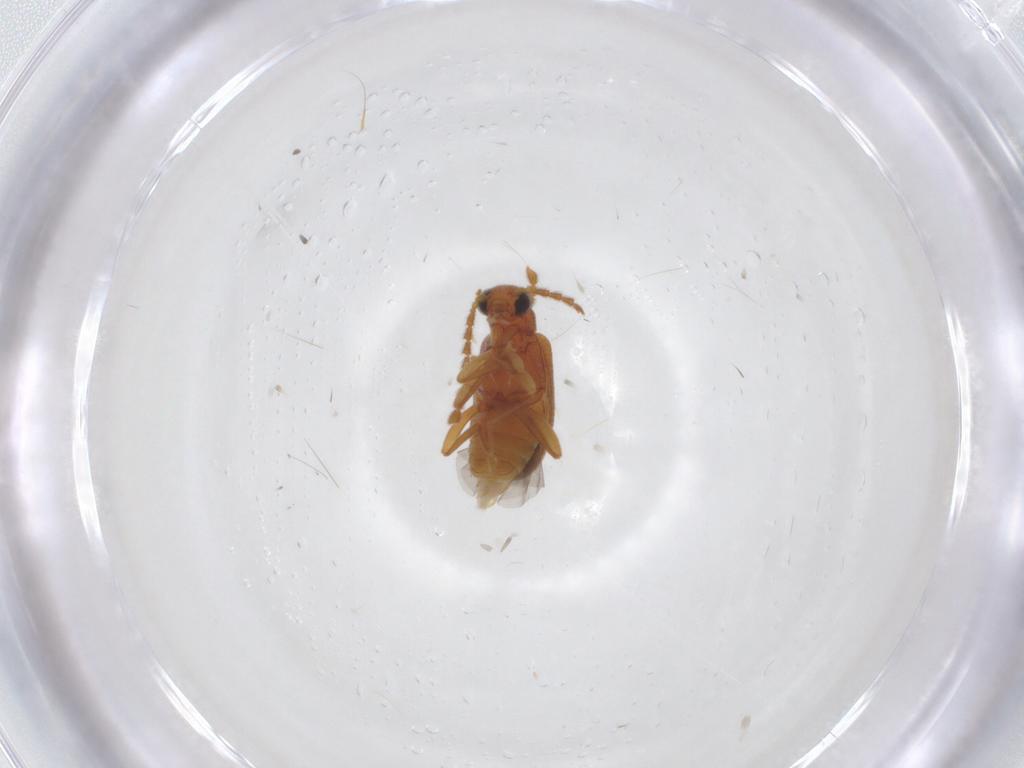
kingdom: Animalia
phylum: Arthropoda
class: Insecta
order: Coleoptera
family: Aderidae
